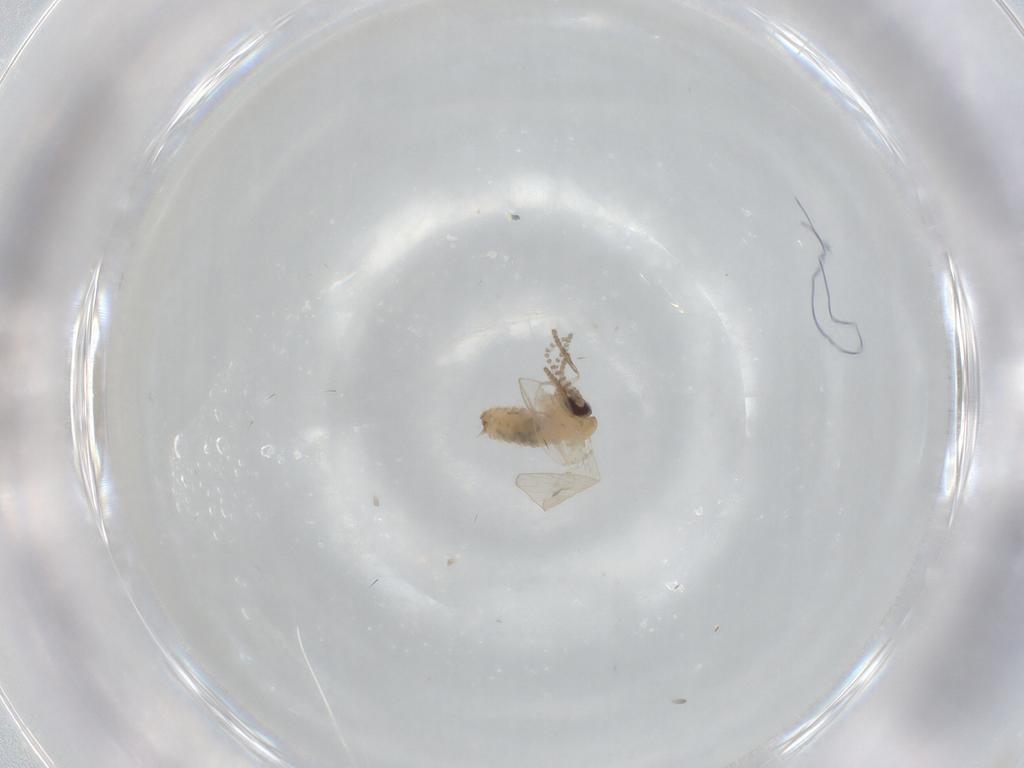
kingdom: Animalia
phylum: Arthropoda
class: Insecta
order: Diptera
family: Psychodidae
